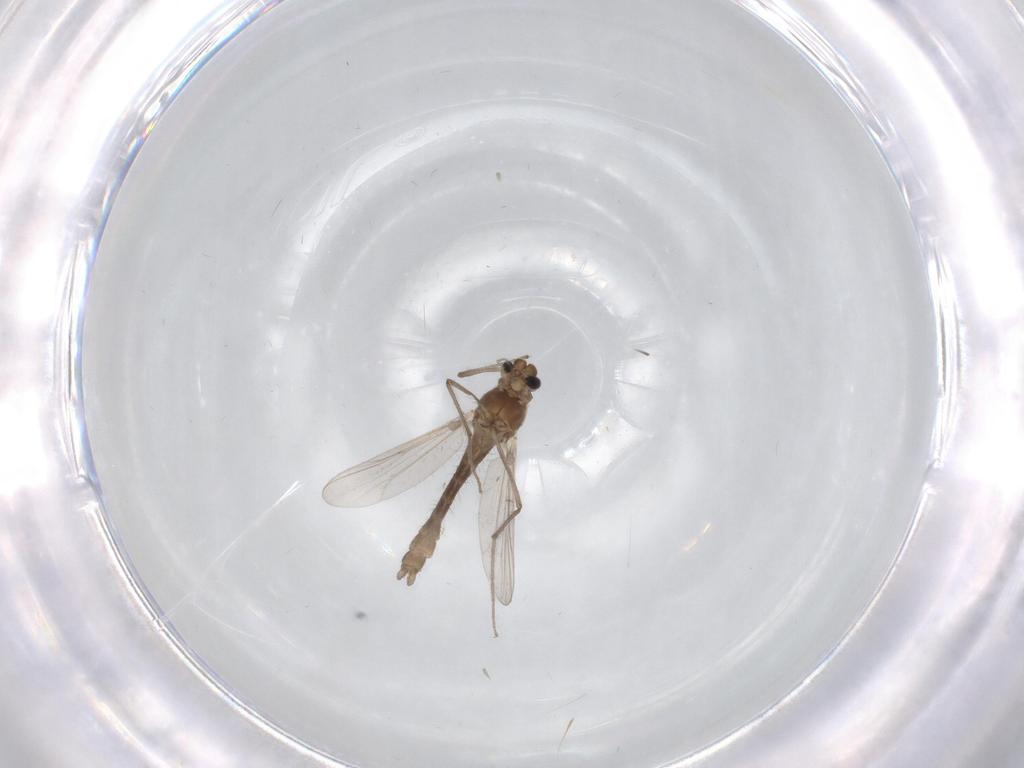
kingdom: Animalia
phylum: Arthropoda
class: Insecta
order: Diptera
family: Chironomidae
